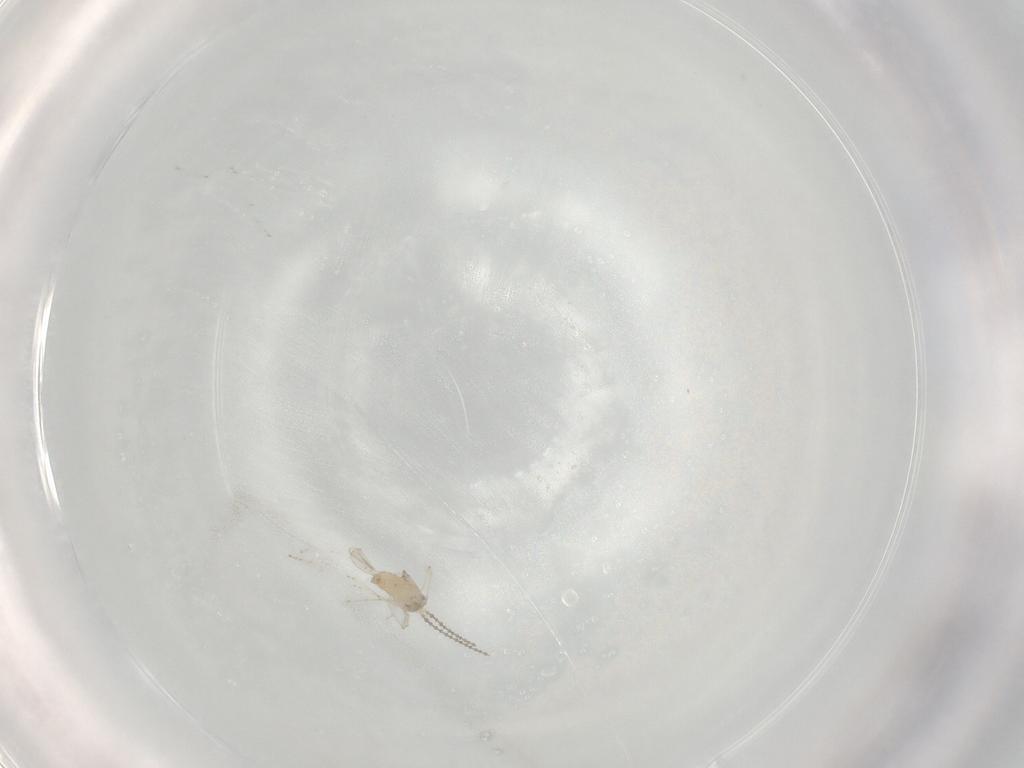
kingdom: Animalia
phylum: Arthropoda
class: Insecta
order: Diptera
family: Cecidomyiidae
